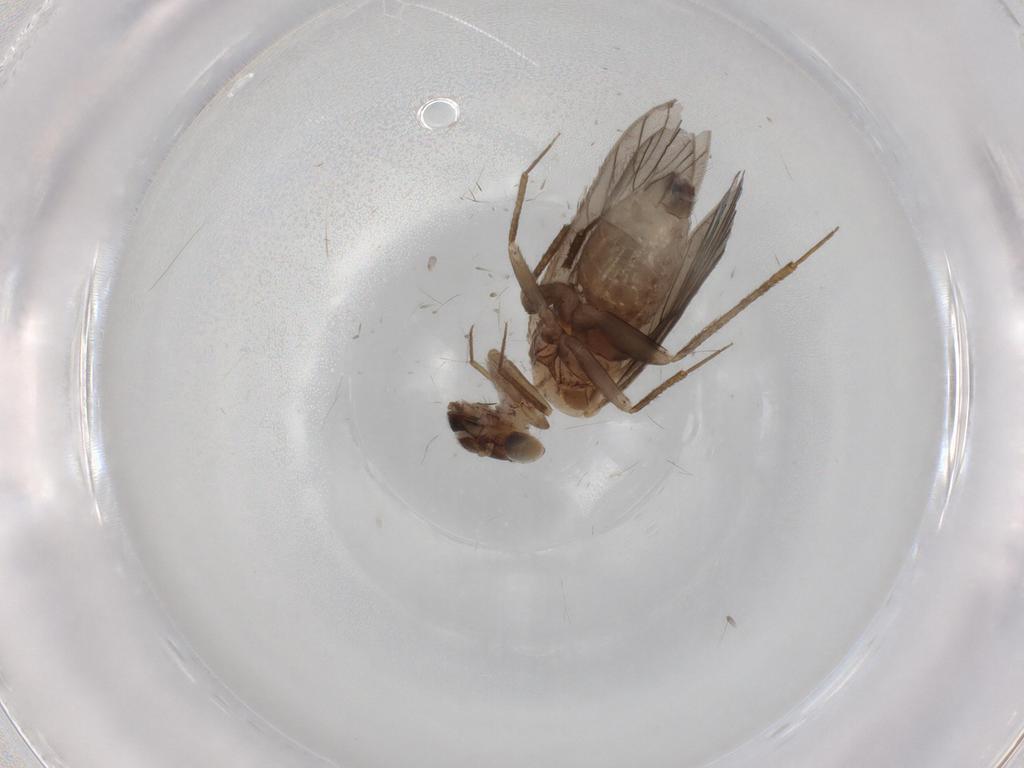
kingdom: Animalia
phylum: Arthropoda
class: Insecta
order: Psocodea
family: Lepidopsocidae
